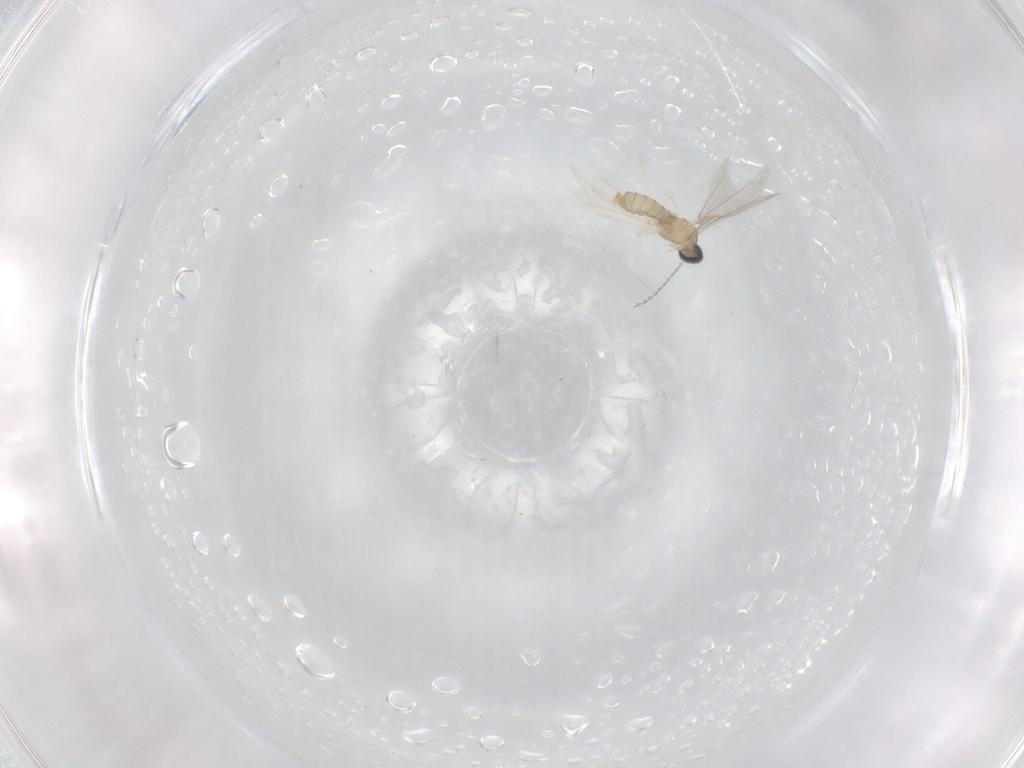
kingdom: Animalia
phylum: Arthropoda
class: Insecta
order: Diptera
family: Cecidomyiidae
